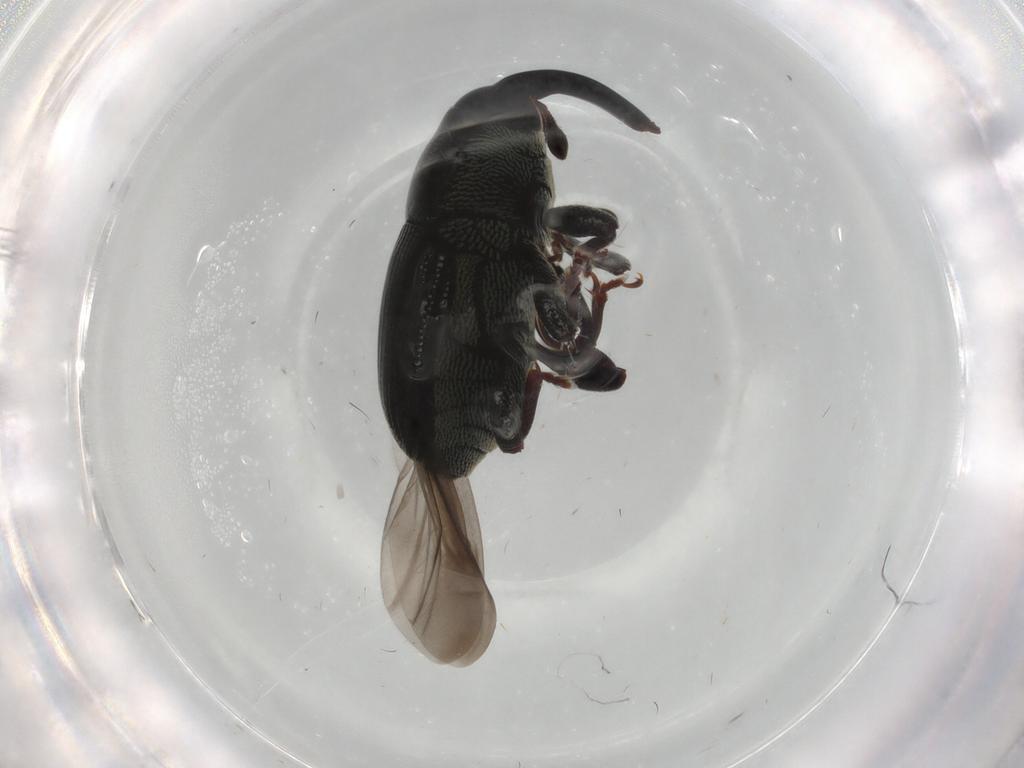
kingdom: Animalia
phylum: Arthropoda
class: Insecta
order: Coleoptera
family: Curculionidae
